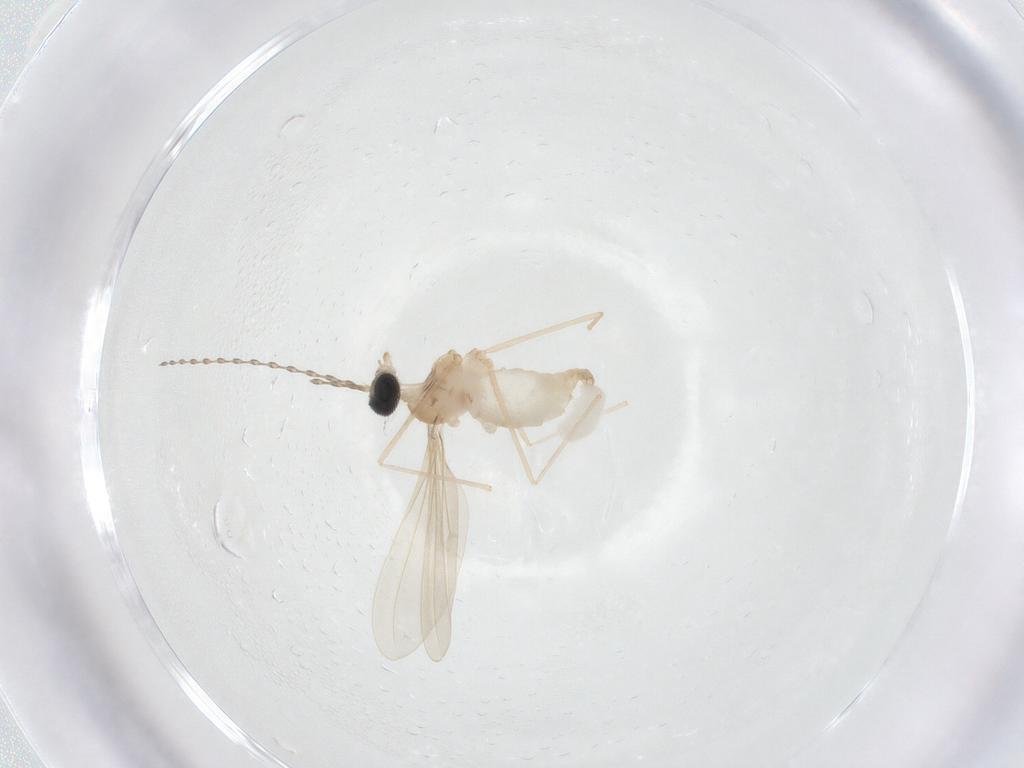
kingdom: Animalia
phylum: Arthropoda
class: Insecta
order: Diptera
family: Cecidomyiidae
